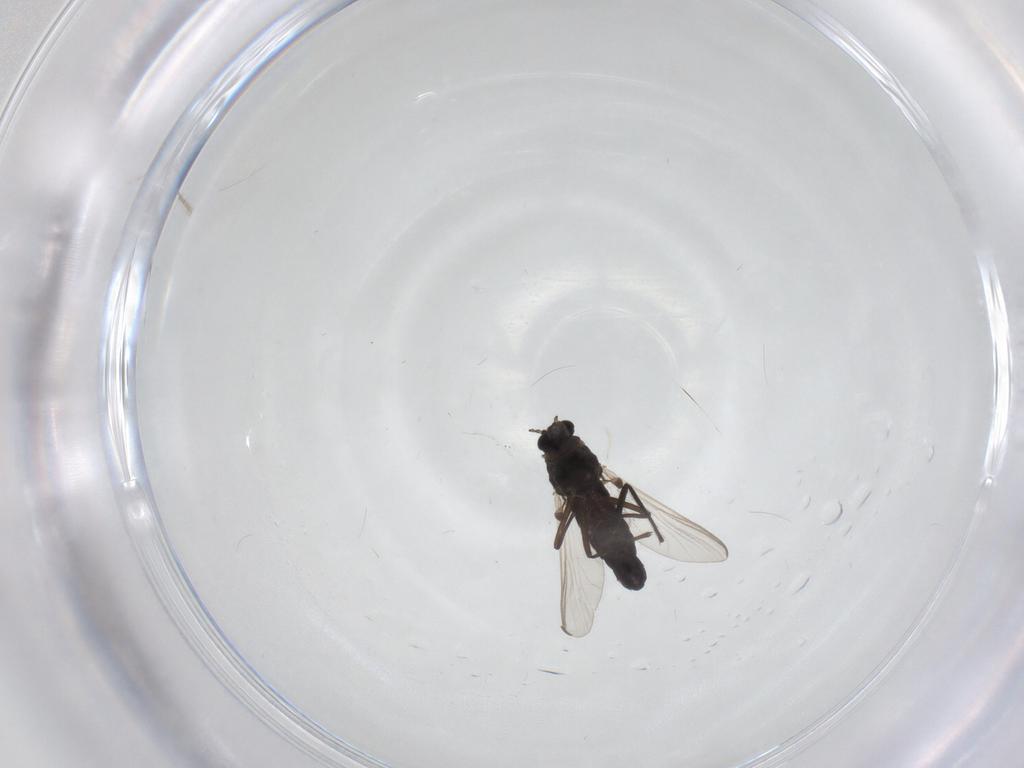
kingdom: Animalia
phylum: Arthropoda
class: Insecta
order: Diptera
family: Chironomidae
